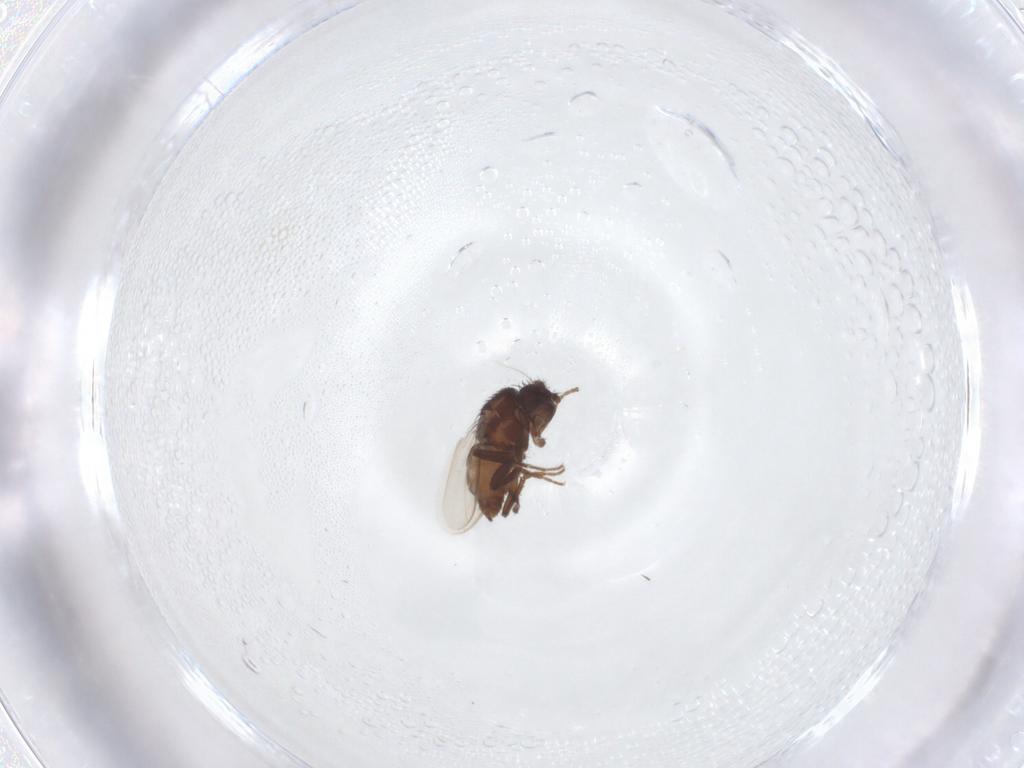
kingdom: Animalia
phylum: Arthropoda
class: Insecta
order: Diptera
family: Sphaeroceridae
